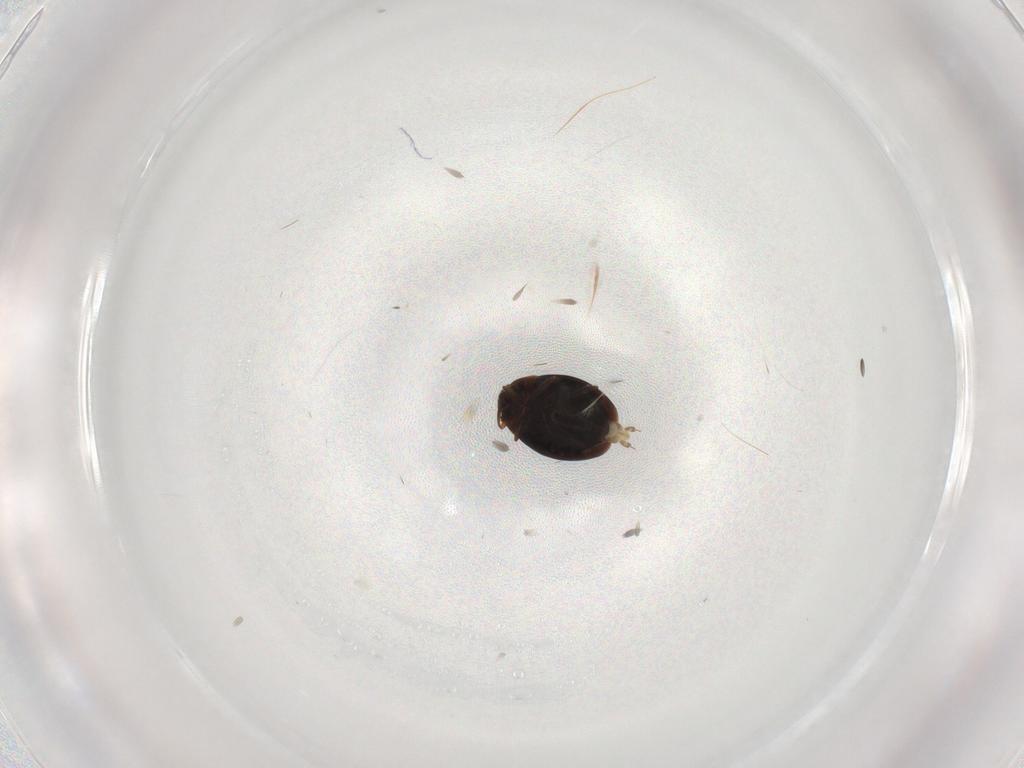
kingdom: Animalia
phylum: Arthropoda
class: Insecta
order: Coleoptera
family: Corylophidae
